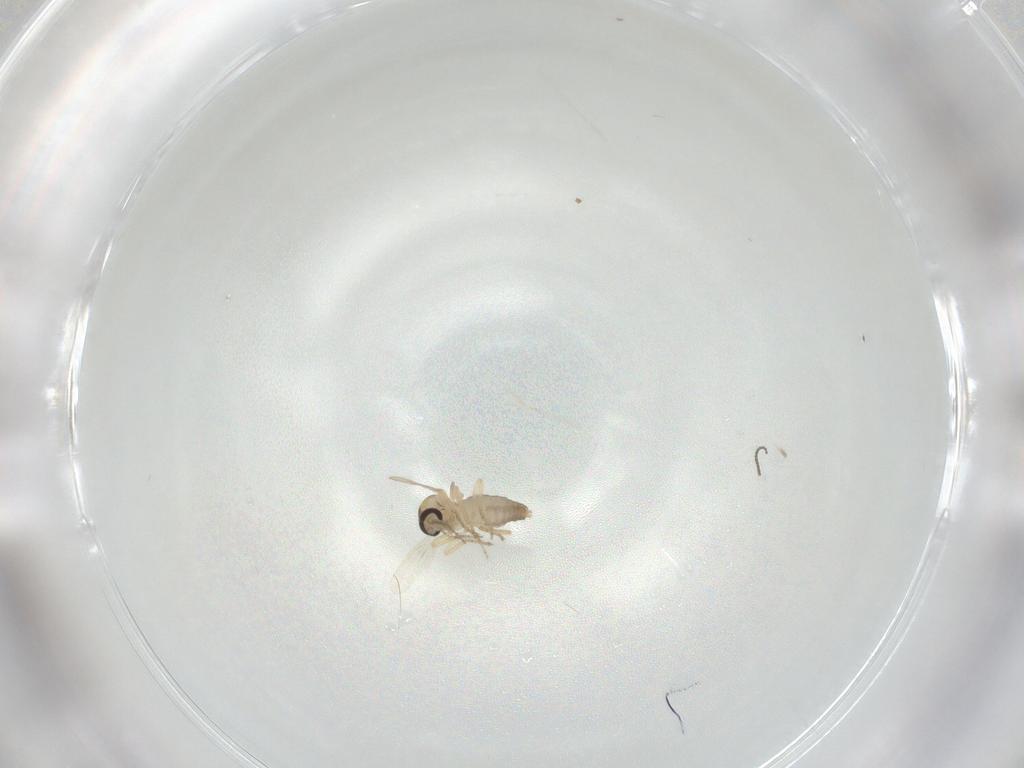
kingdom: Animalia
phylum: Arthropoda
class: Insecta
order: Diptera
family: Ceratopogonidae
